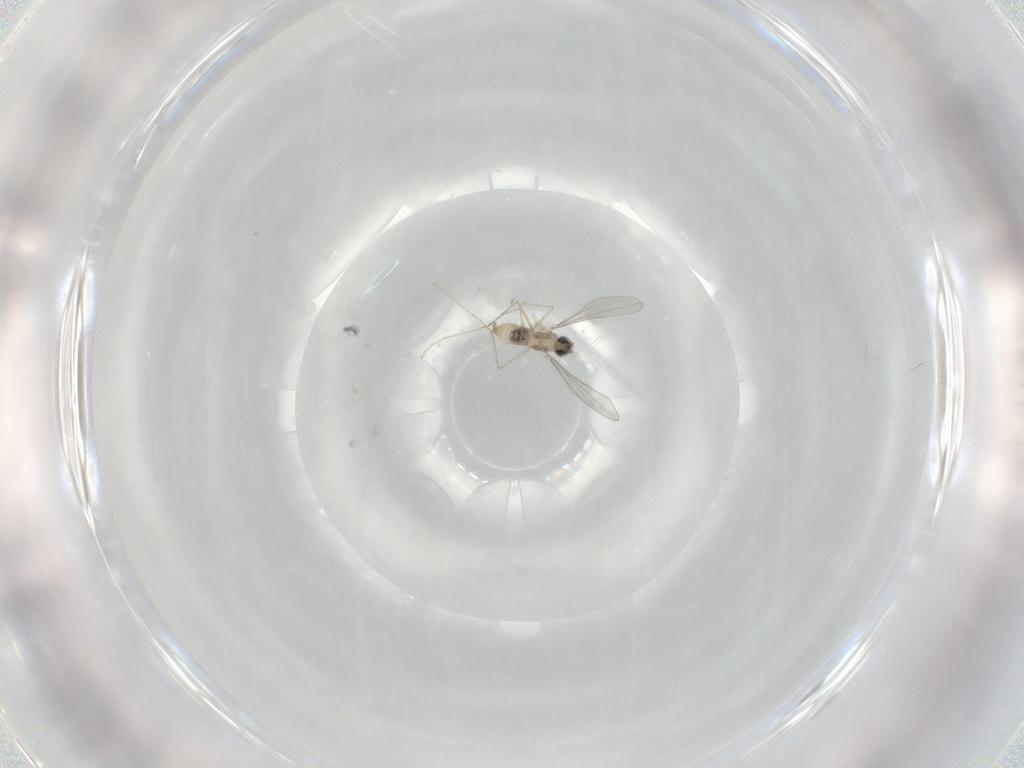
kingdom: Animalia
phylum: Arthropoda
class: Insecta
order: Diptera
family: Cecidomyiidae
